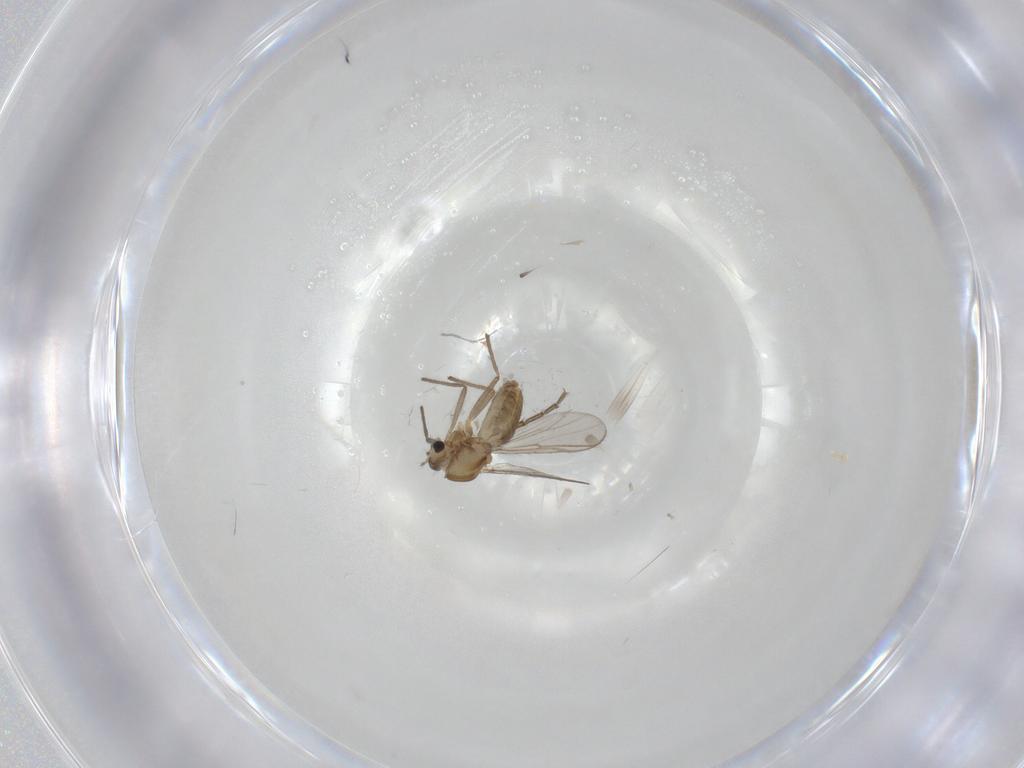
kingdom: Animalia
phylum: Arthropoda
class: Insecta
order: Diptera
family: Chironomidae
